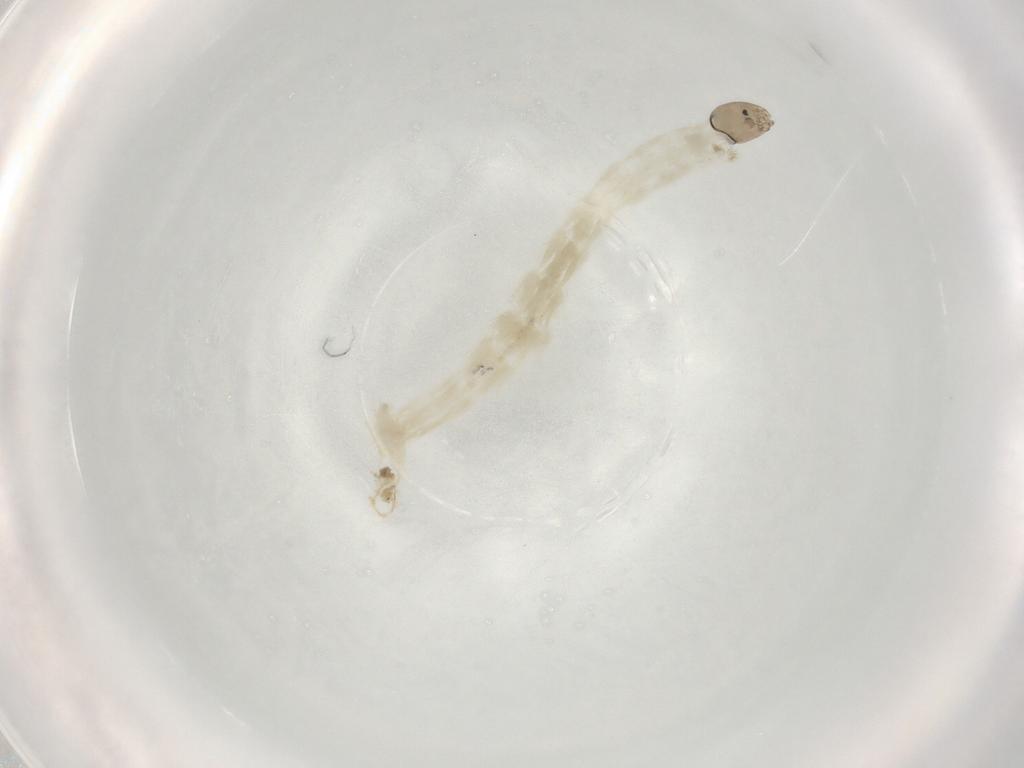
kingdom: Animalia
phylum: Arthropoda
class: Insecta
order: Diptera
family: Chironomidae
